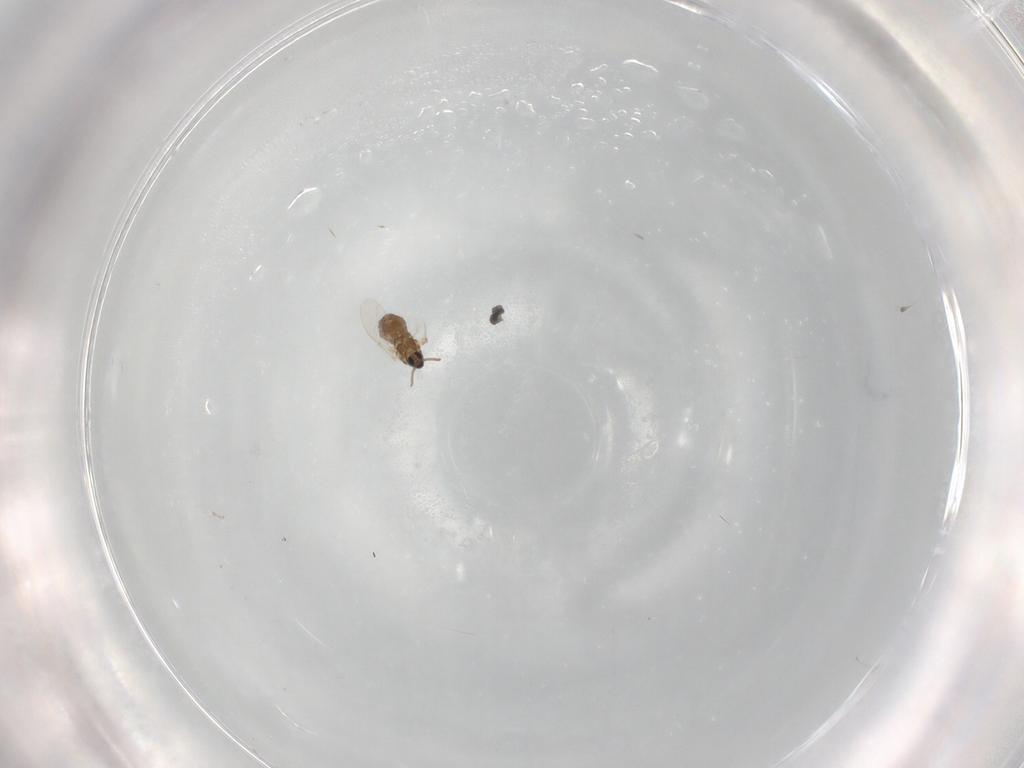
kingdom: Animalia
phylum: Arthropoda
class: Insecta
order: Diptera
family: Cecidomyiidae
